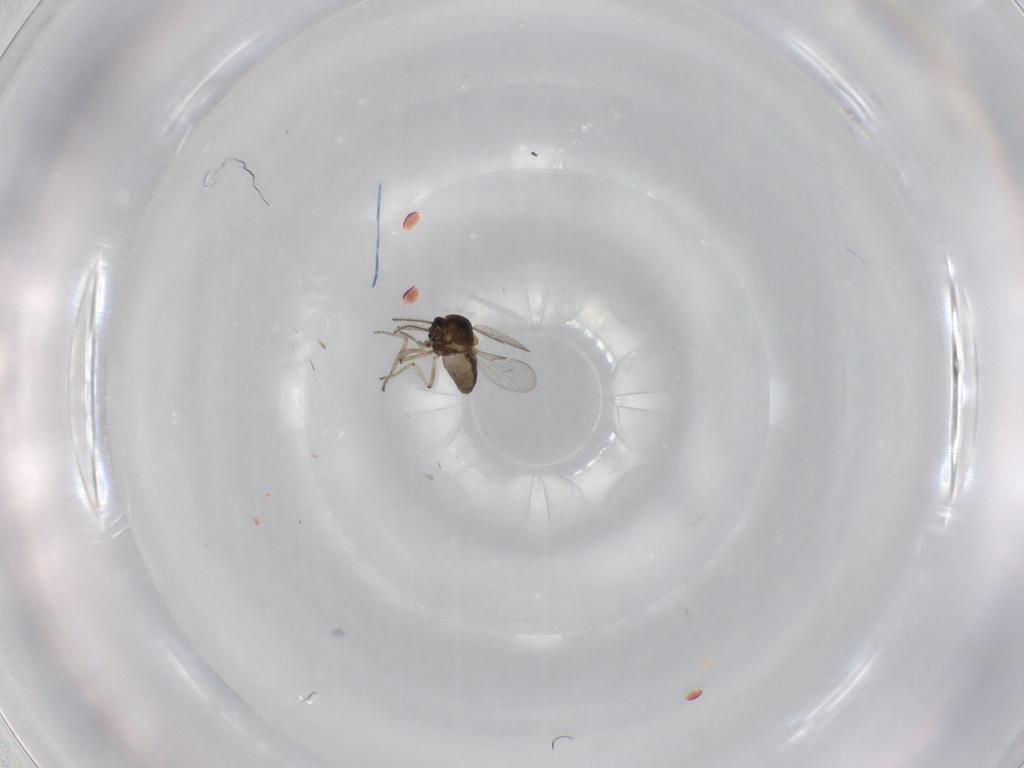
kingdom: Animalia
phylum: Arthropoda
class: Insecta
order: Diptera
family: Ceratopogonidae
